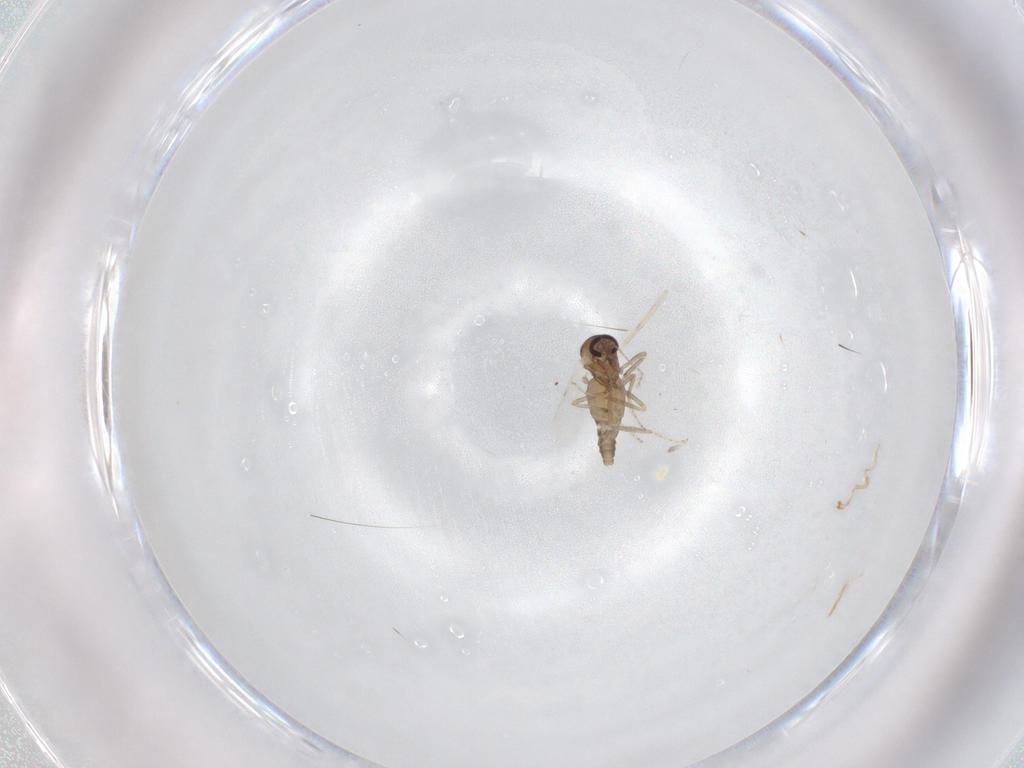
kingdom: Animalia
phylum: Arthropoda
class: Insecta
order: Diptera
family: Ceratopogonidae
